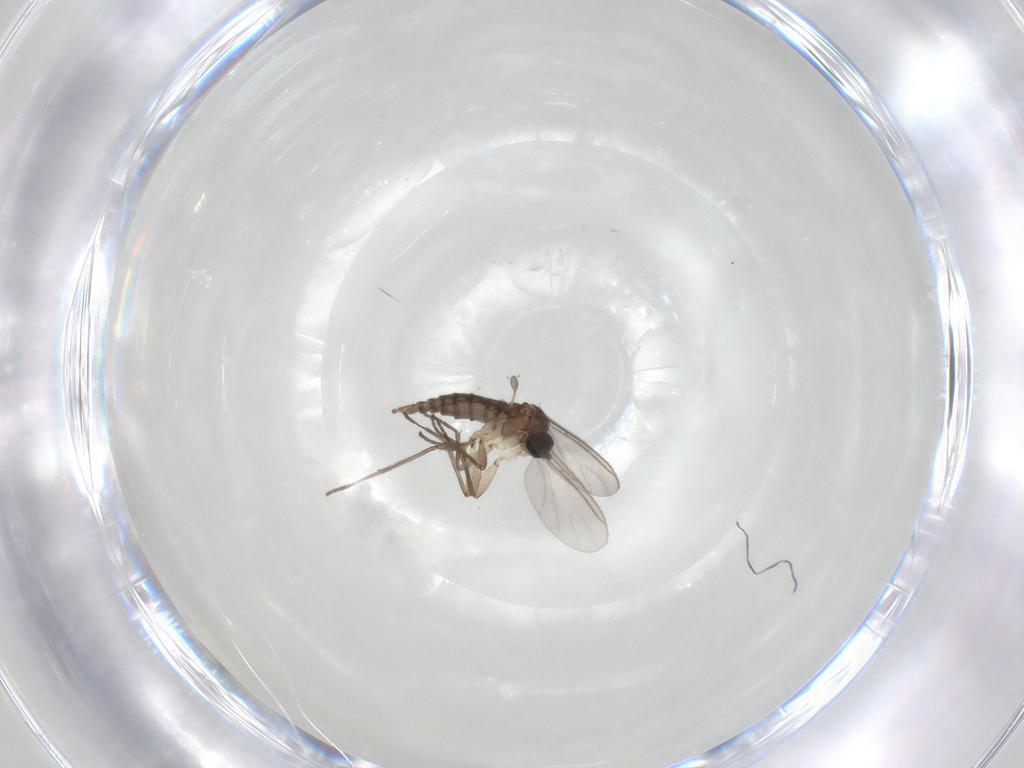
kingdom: Animalia
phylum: Arthropoda
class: Insecta
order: Diptera
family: Sciaridae
